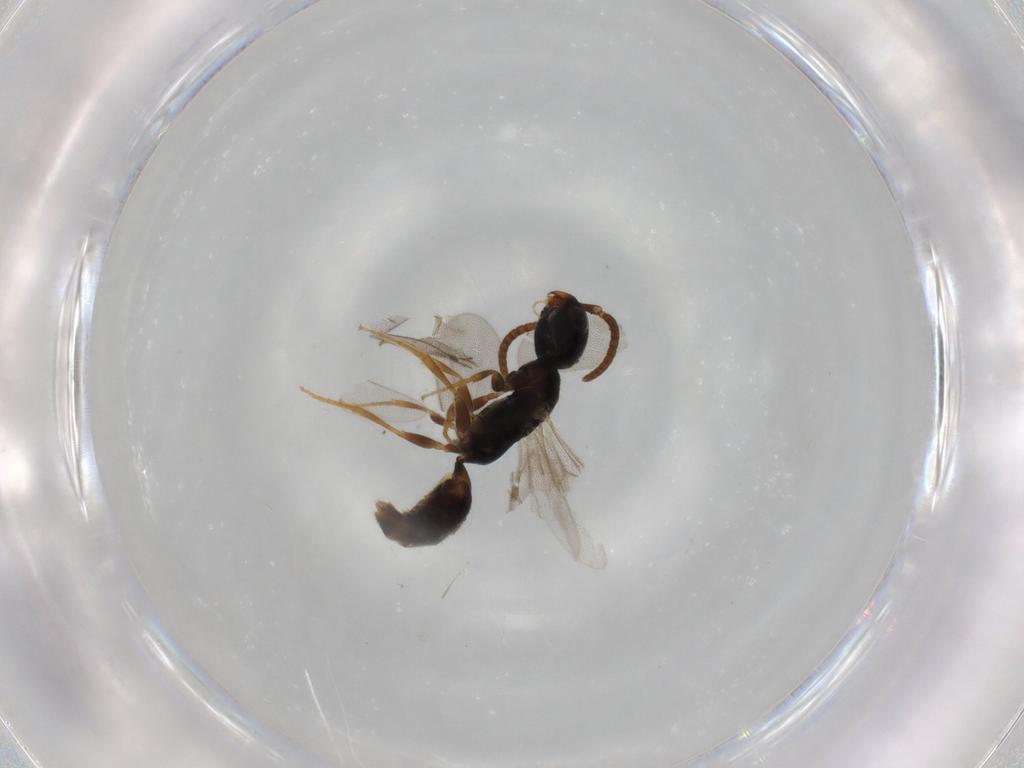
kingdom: Animalia
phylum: Arthropoda
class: Insecta
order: Hymenoptera
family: Bethylidae
